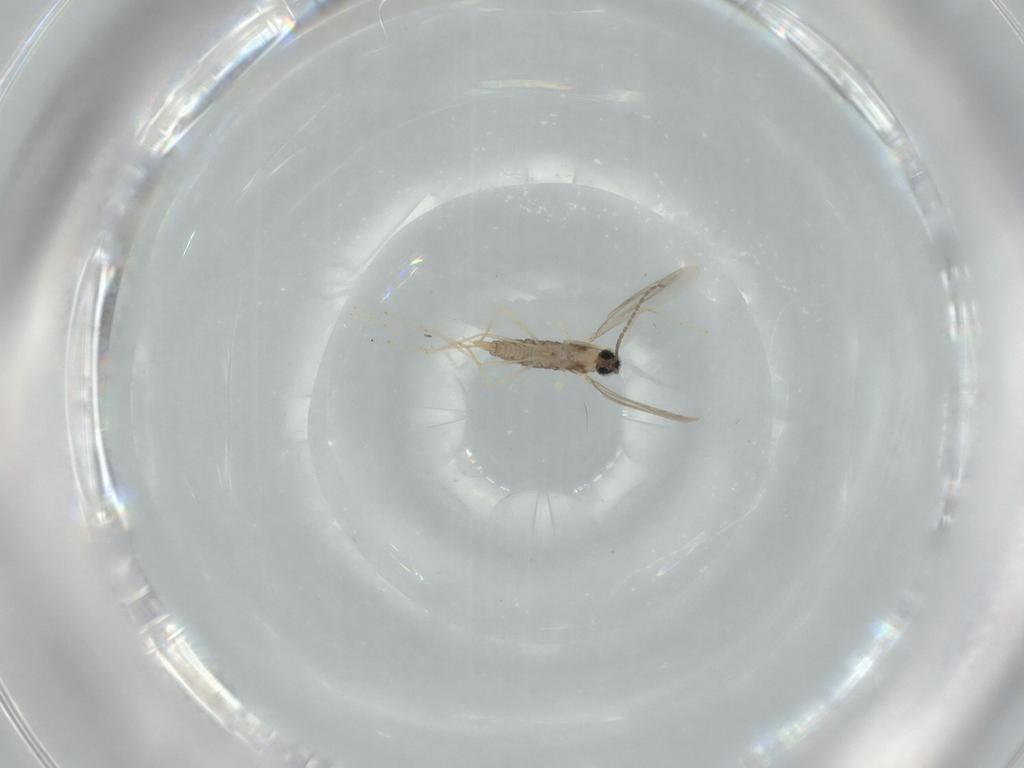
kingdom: Animalia
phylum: Arthropoda
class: Insecta
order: Diptera
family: Cecidomyiidae
